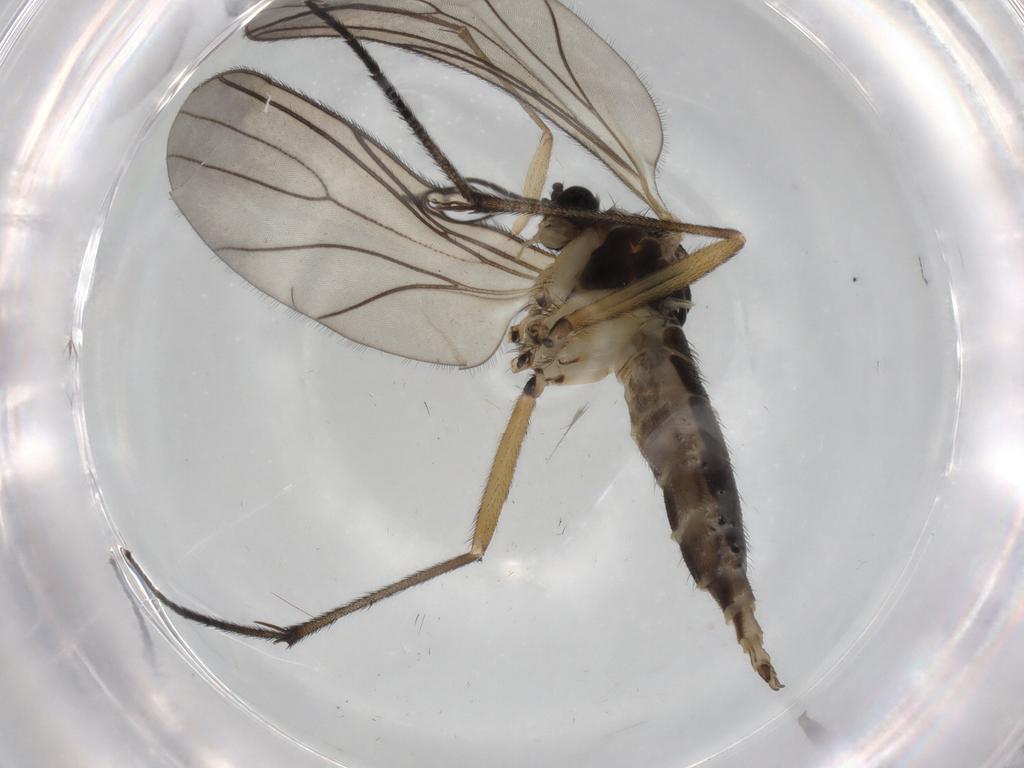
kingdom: Animalia
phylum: Arthropoda
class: Insecta
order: Diptera
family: Sciaridae
